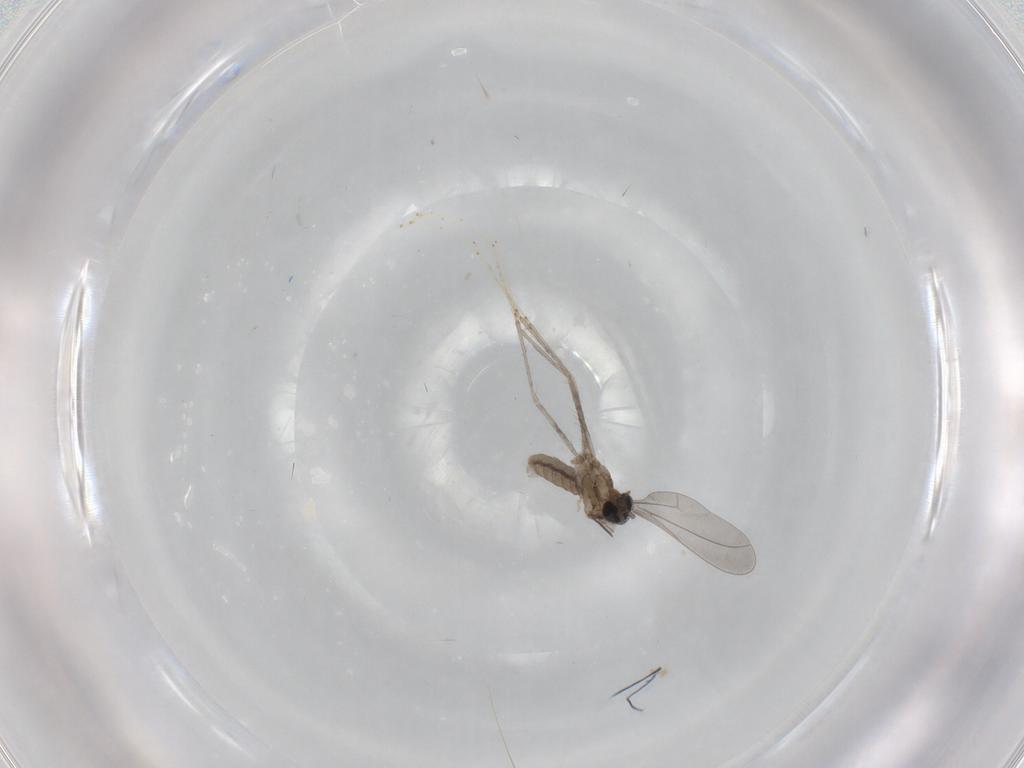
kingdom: Animalia
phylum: Arthropoda
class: Insecta
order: Diptera
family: Cecidomyiidae
